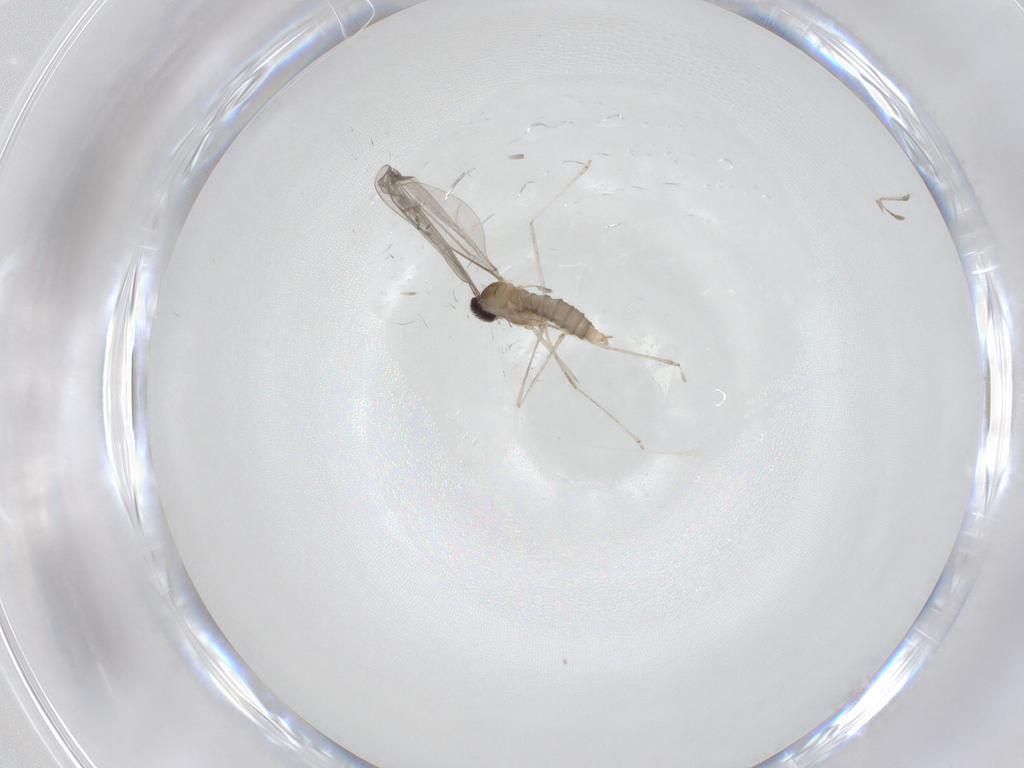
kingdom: Animalia
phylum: Arthropoda
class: Insecta
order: Diptera
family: Cecidomyiidae
